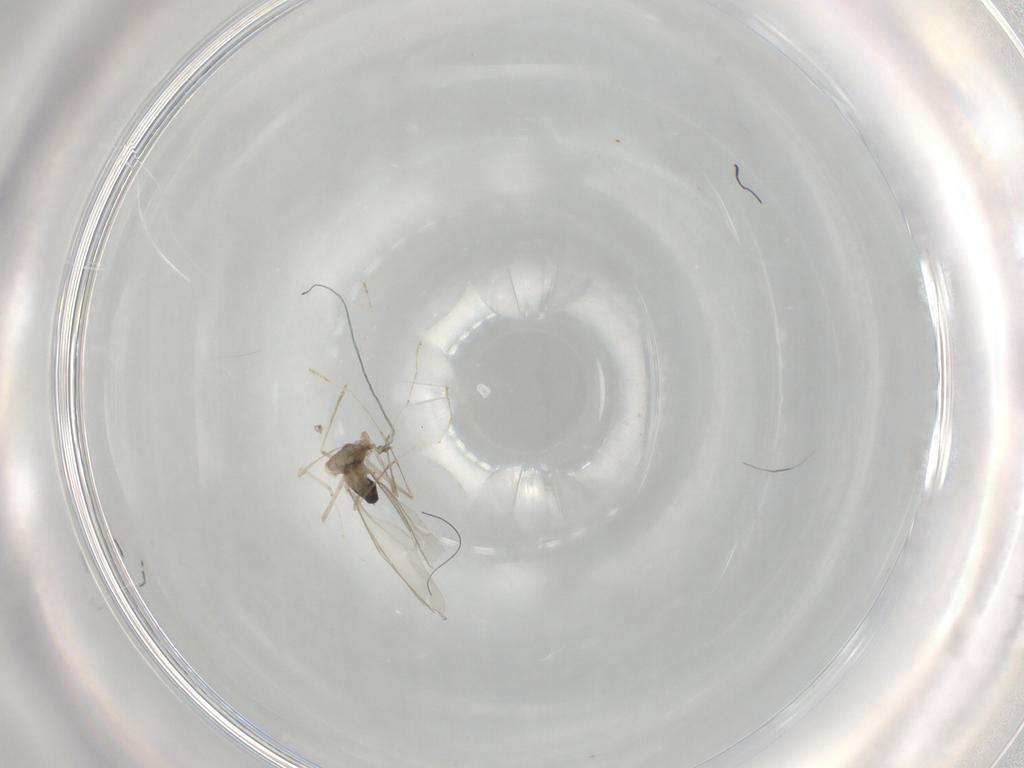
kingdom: Animalia
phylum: Arthropoda
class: Insecta
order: Diptera
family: Cecidomyiidae
